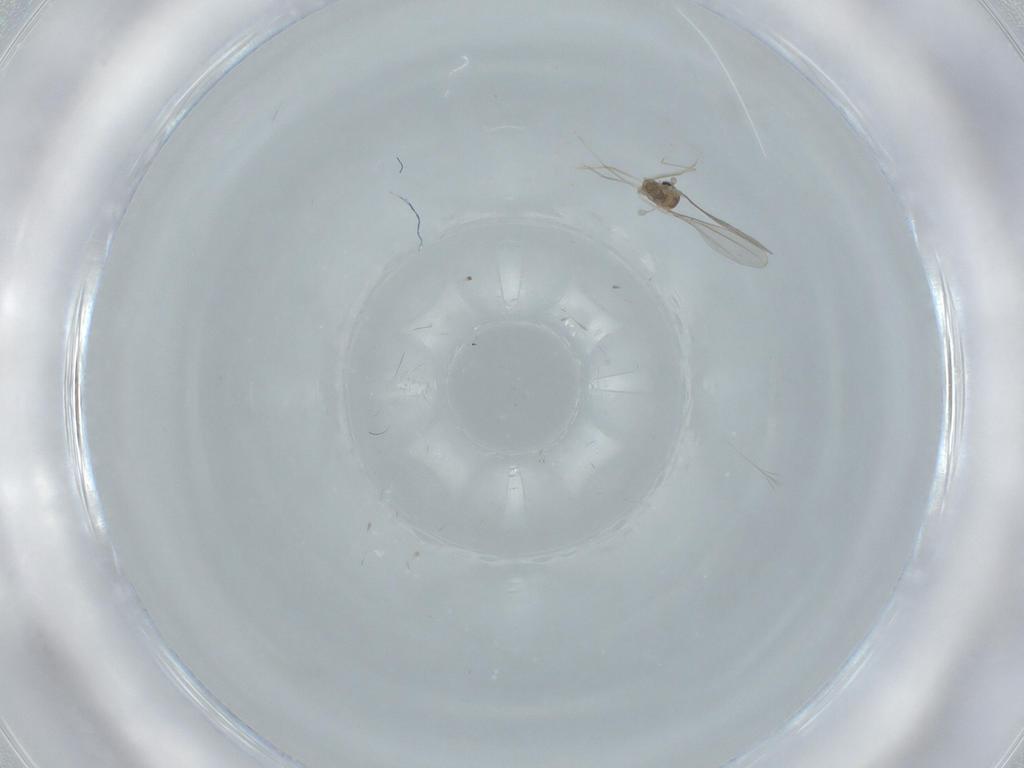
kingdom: Animalia
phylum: Arthropoda
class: Insecta
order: Diptera
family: Cecidomyiidae
